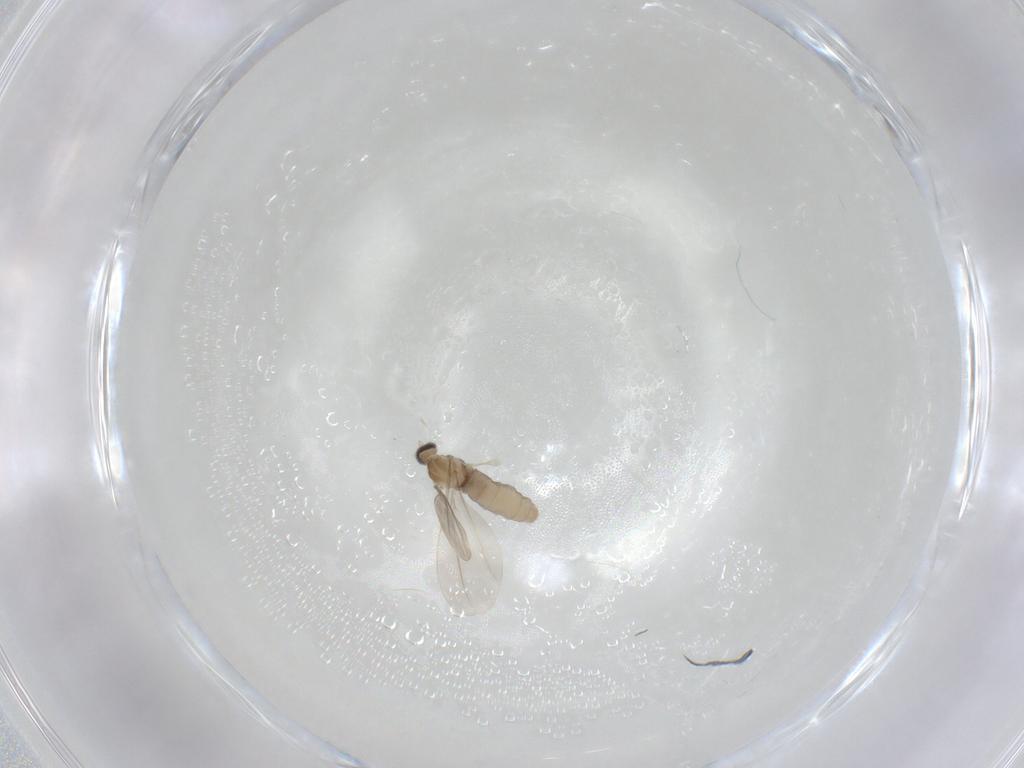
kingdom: Animalia
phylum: Arthropoda
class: Insecta
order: Diptera
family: Cecidomyiidae
